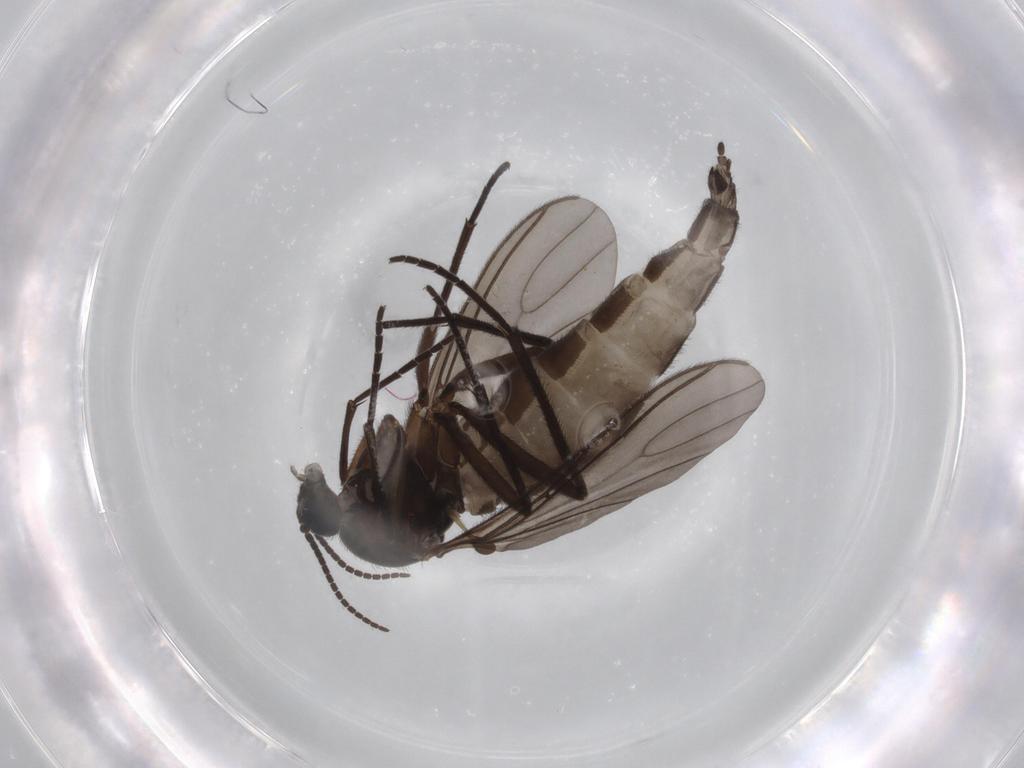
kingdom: Animalia
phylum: Arthropoda
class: Insecta
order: Diptera
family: Sciaridae
